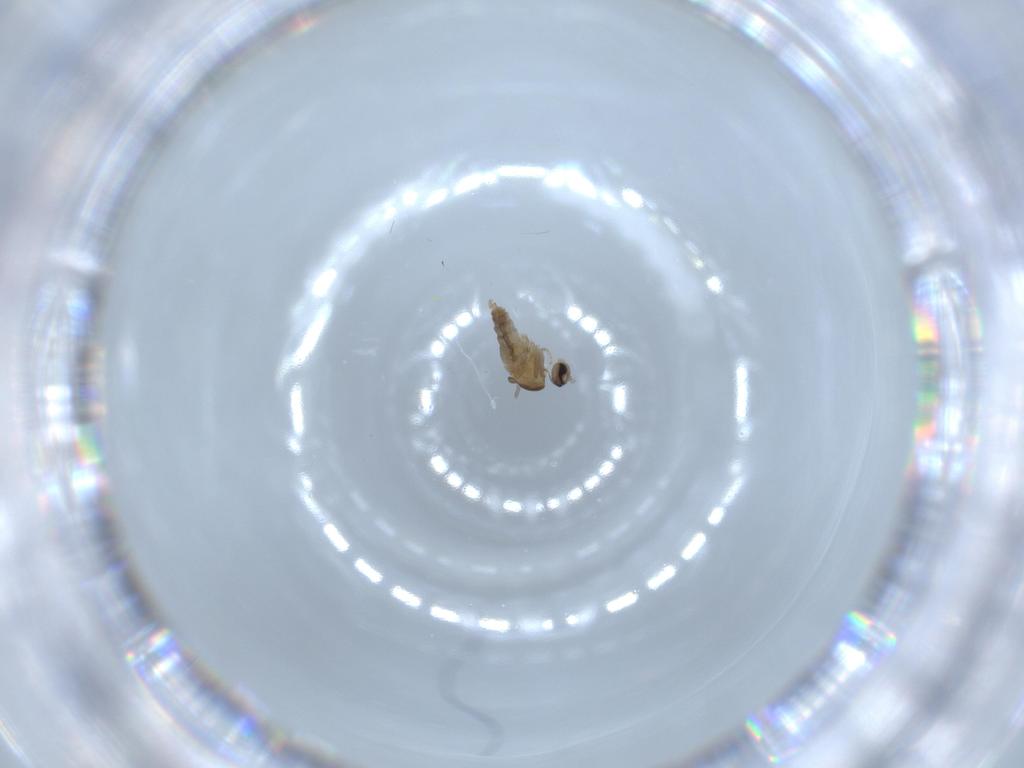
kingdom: Animalia
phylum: Arthropoda
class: Insecta
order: Diptera
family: Cecidomyiidae
